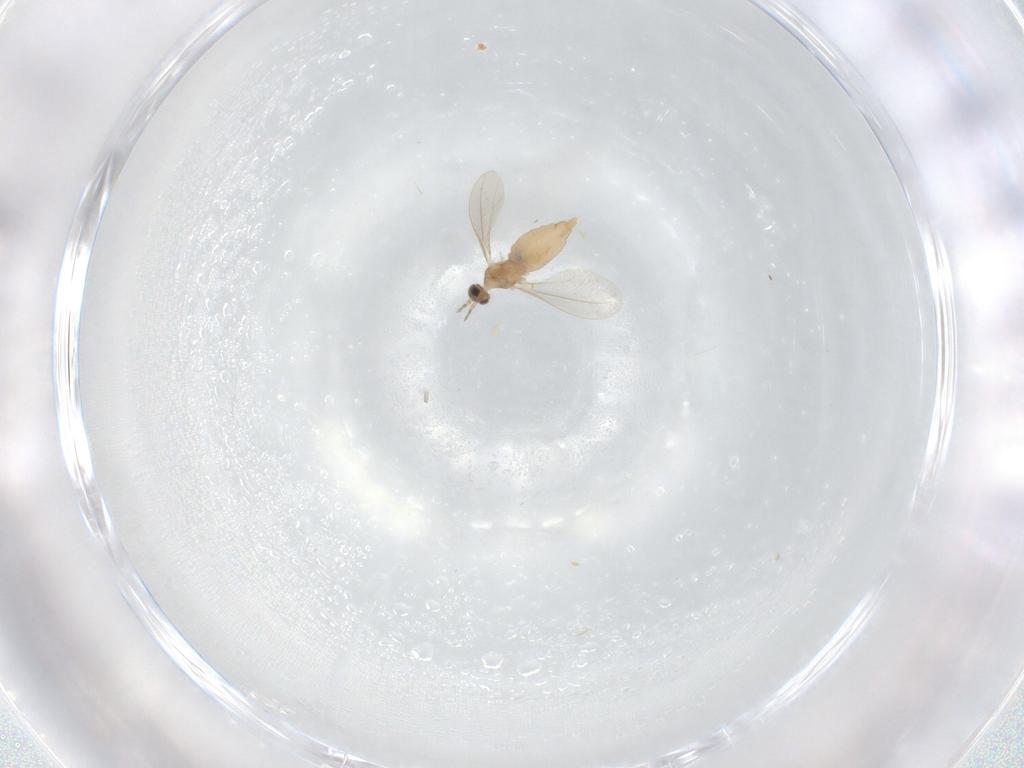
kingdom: Animalia
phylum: Arthropoda
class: Insecta
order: Diptera
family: Cecidomyiidae
